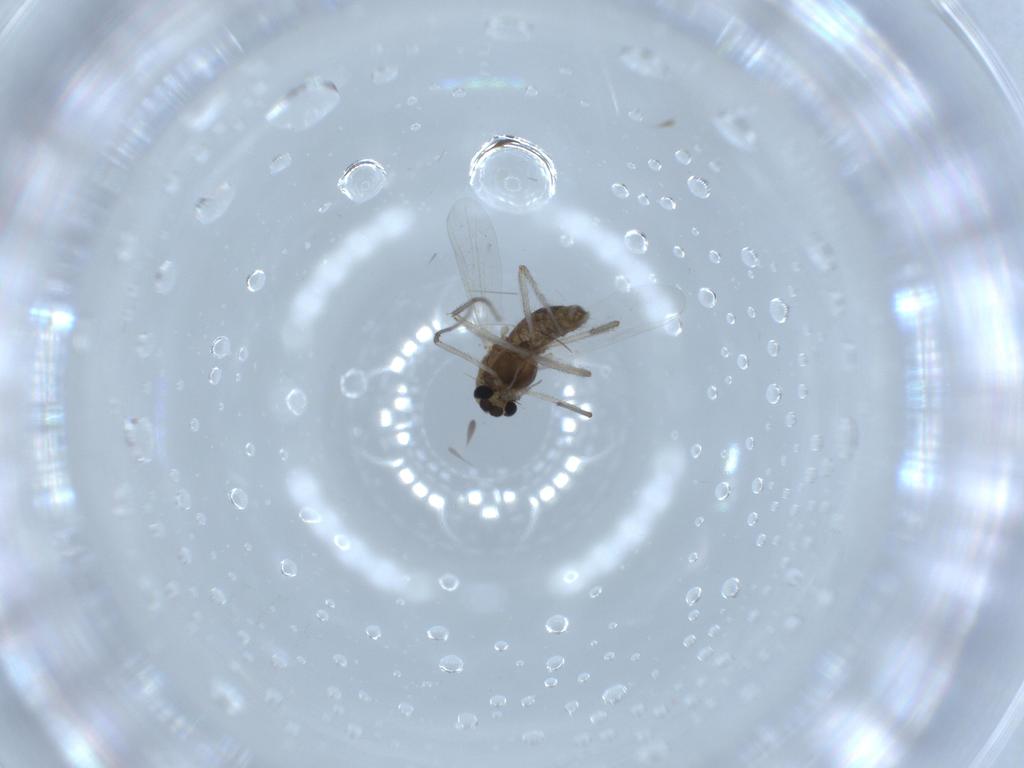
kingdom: Animalia
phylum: Arthropoda
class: Insecta
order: Diptera
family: Chironomidae
